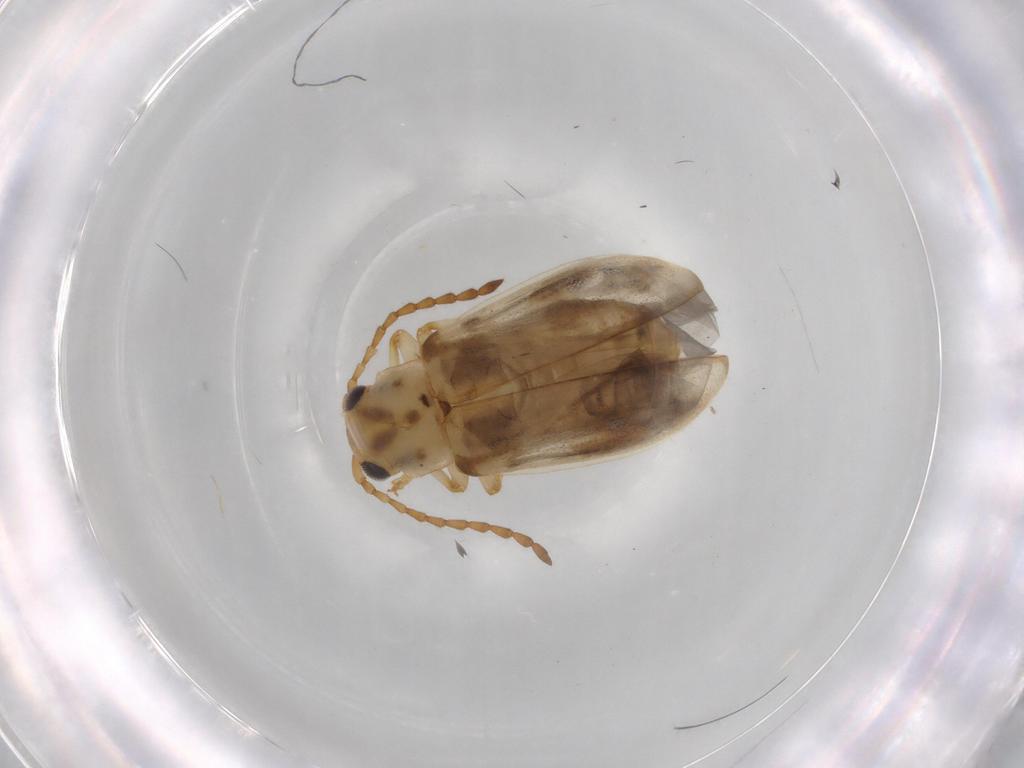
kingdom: Animalia
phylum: Arthropoda
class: Insecta
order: Coleoptera
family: Chrysomelidae
